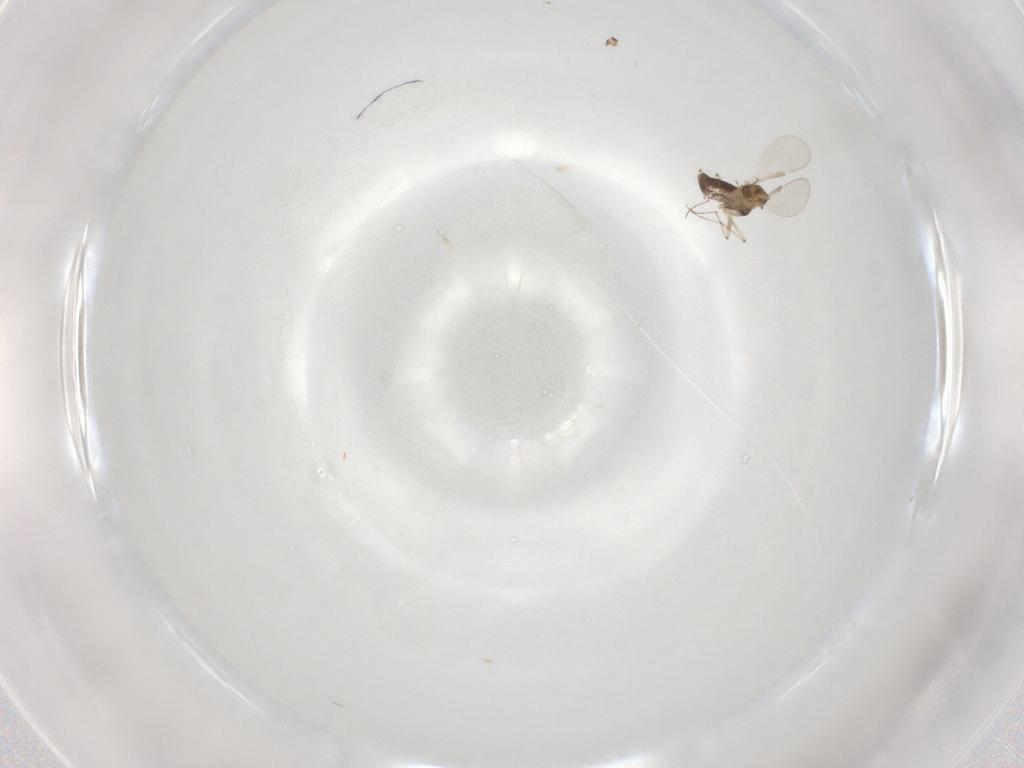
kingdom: Animalia
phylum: Arthropoda
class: Insecta
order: Diptera
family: Chironomidae
